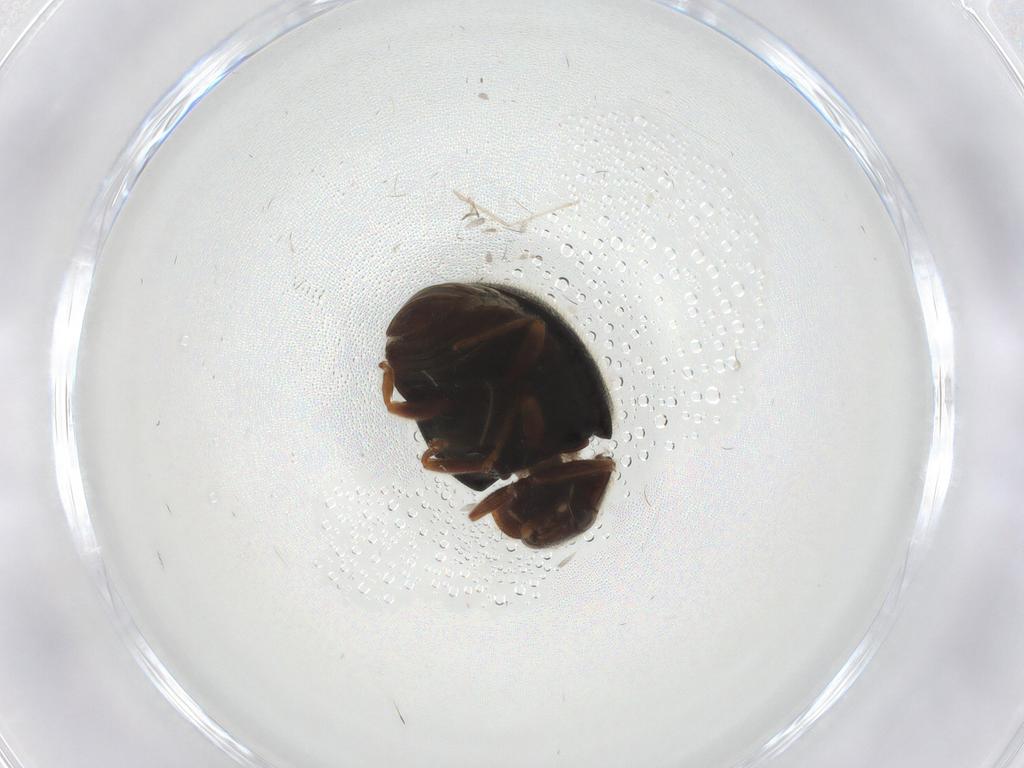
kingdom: Animalia
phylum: Arthropoda
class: Insecta
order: Coleoptera
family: Coccinellidae
